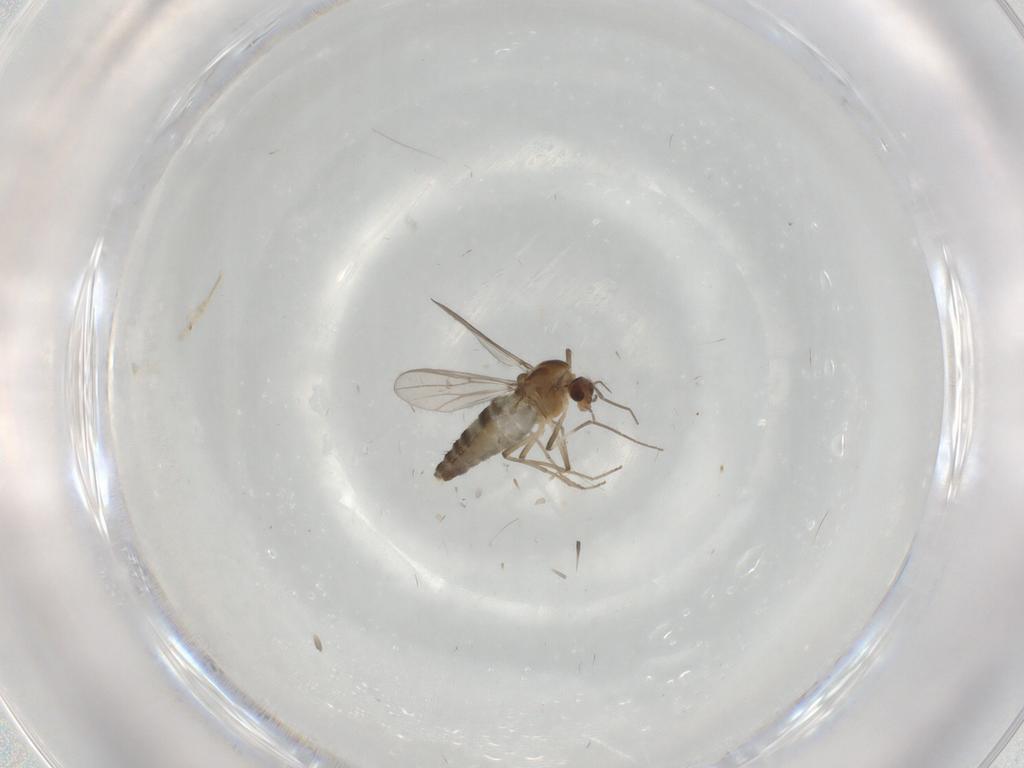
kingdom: Animalia
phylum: Arthropoda
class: Insecta
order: Diptera
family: Chironomidae
